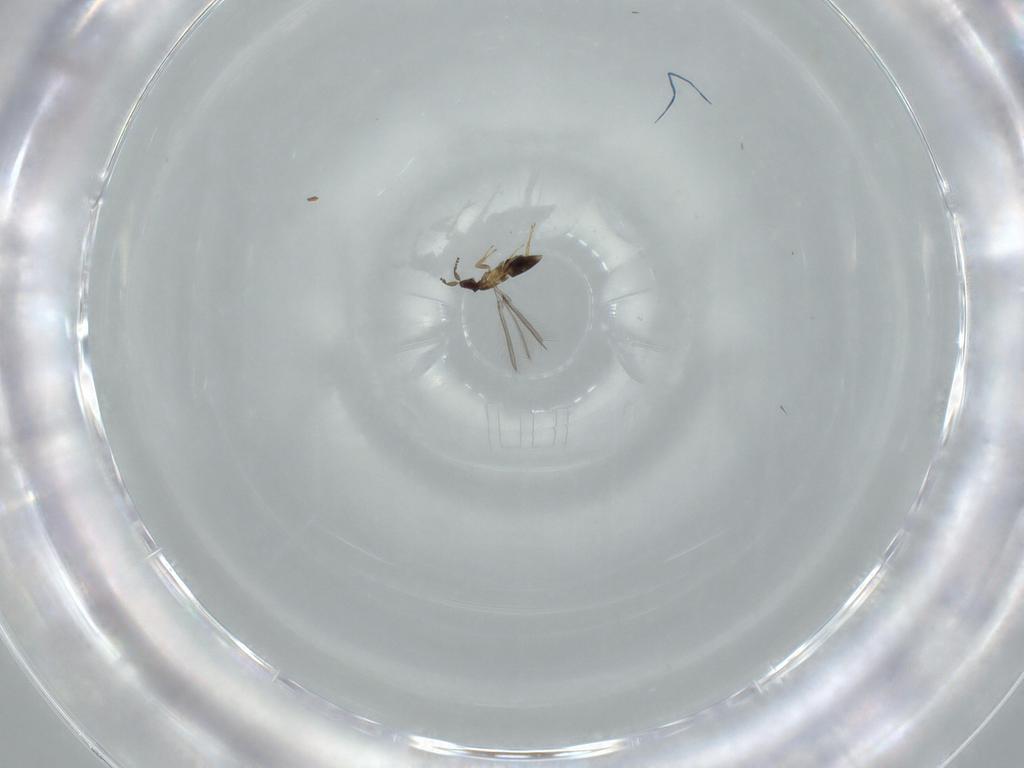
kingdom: Animalia
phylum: Arthropoda
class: Insecta
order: Hymenoptera
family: Mymaridae
